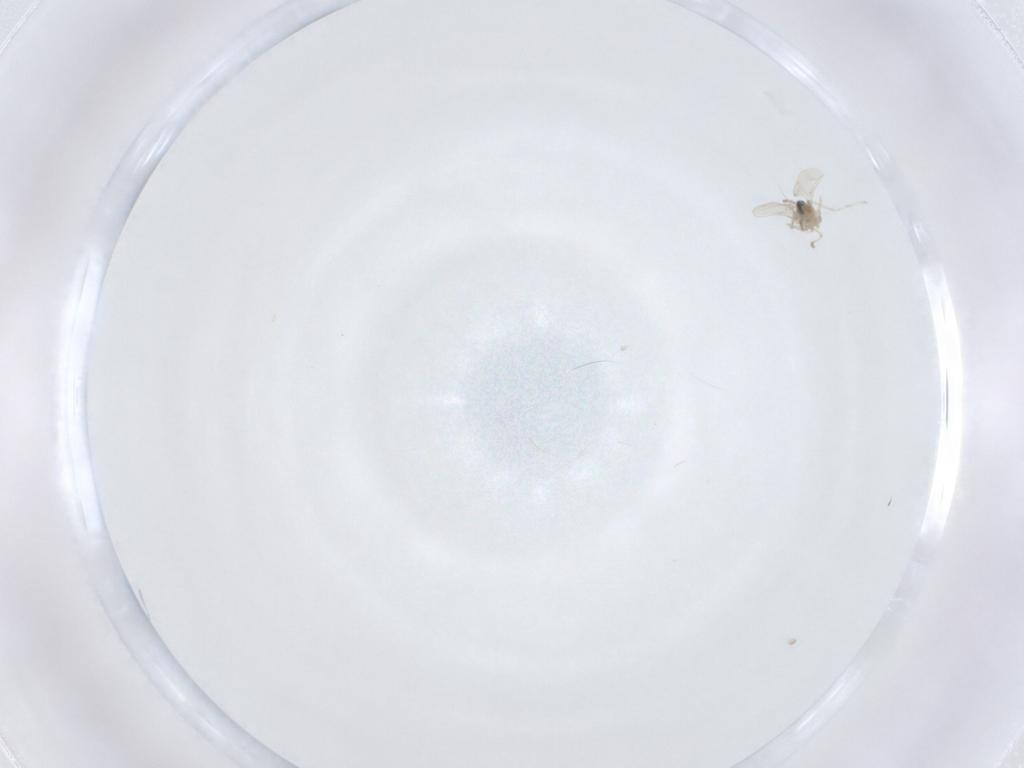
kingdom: Animalia
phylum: Arthropoda
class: Insecta
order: Diptera
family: Cecidomyiidae
